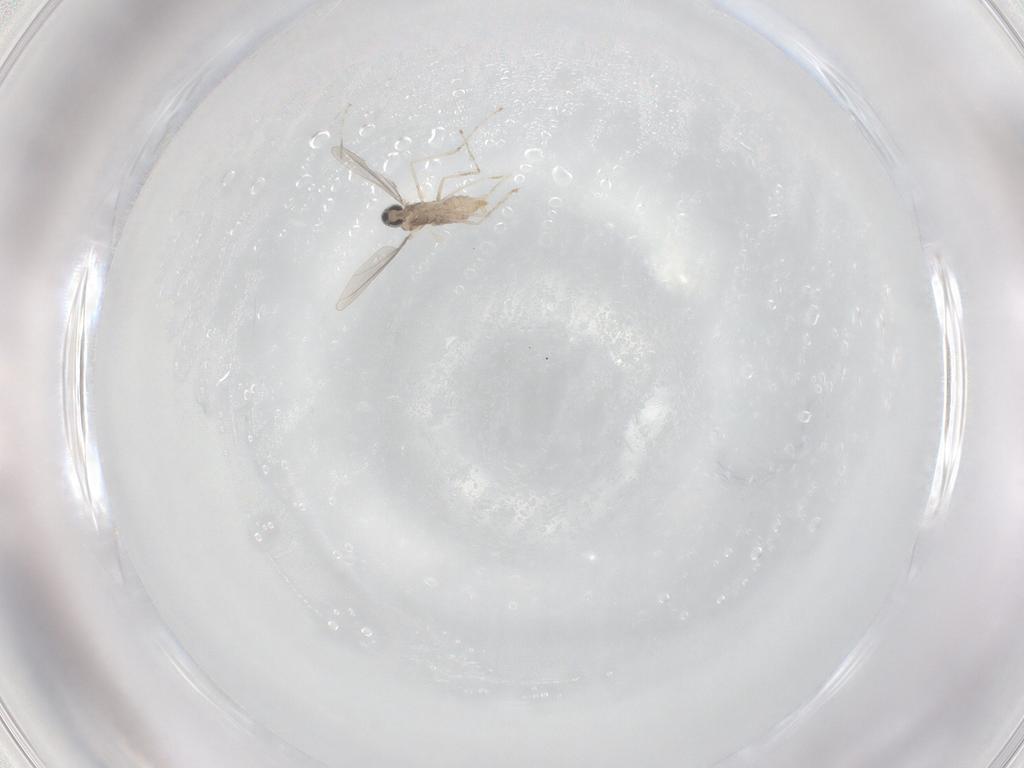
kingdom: Animalia
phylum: Arthropoda
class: Insecta
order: Diptera
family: Cecidomyiidae
